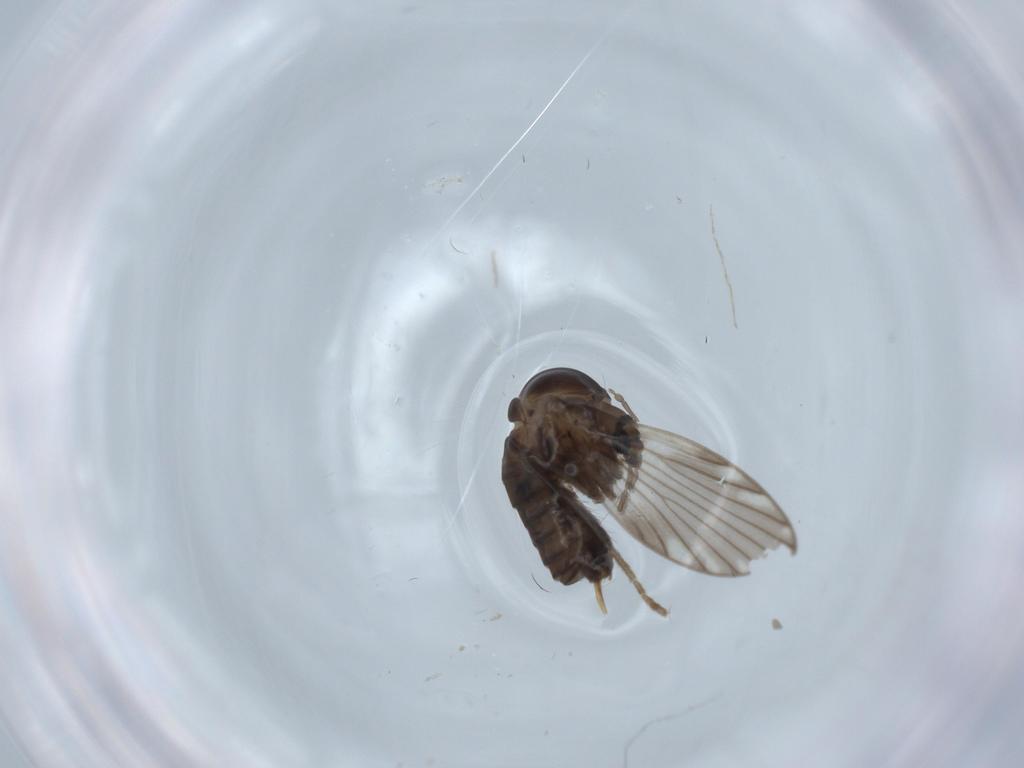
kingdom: Animalia
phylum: Arthropoda
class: Insecta
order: Diptera
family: Psychodidae
